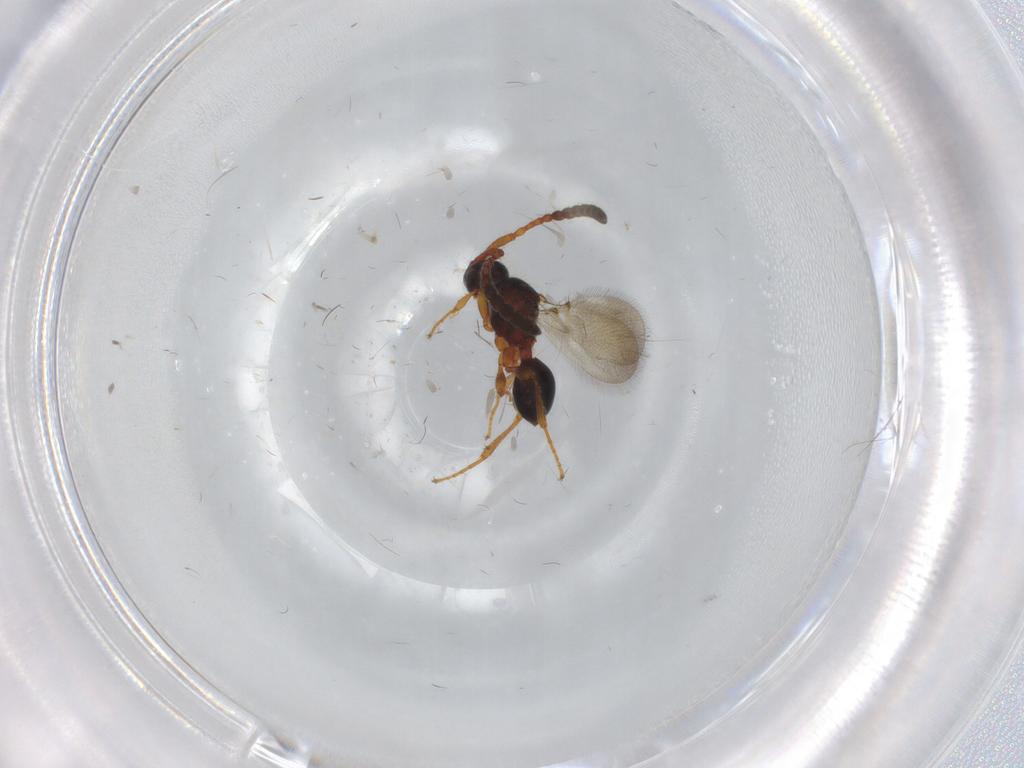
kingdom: Animalia
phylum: Arthropoda
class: Insecta
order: Hymenoptera
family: Diapriidae
